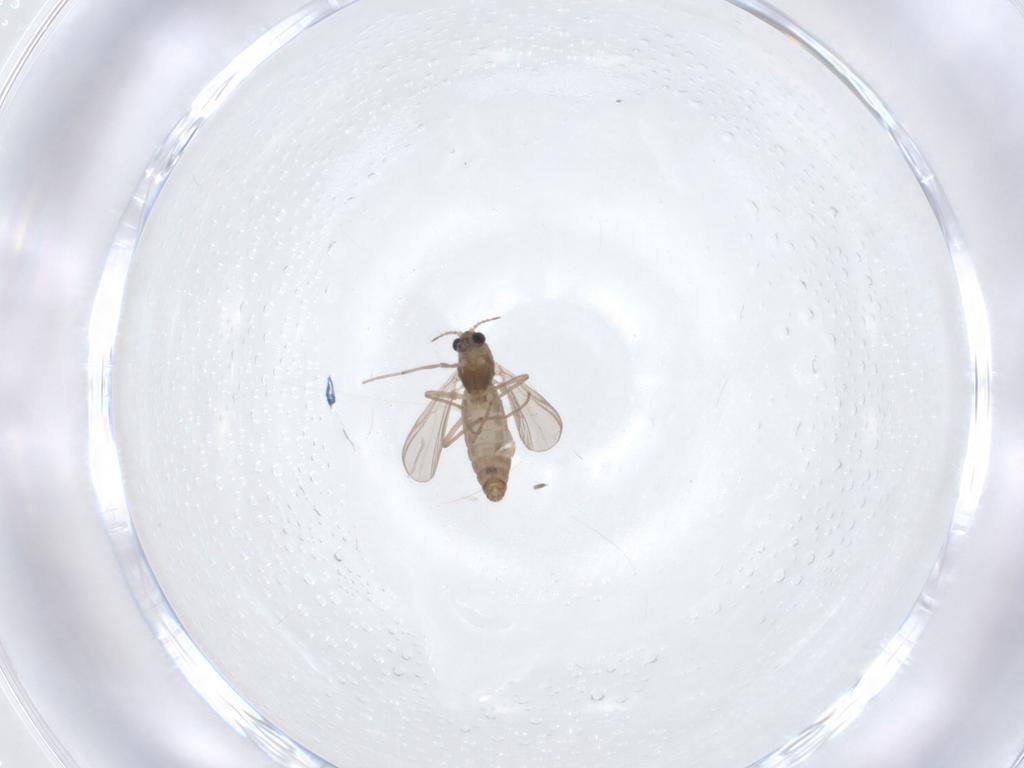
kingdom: Animalia
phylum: Arthropoda
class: Insecta
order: Diptera
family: Chironomidae
